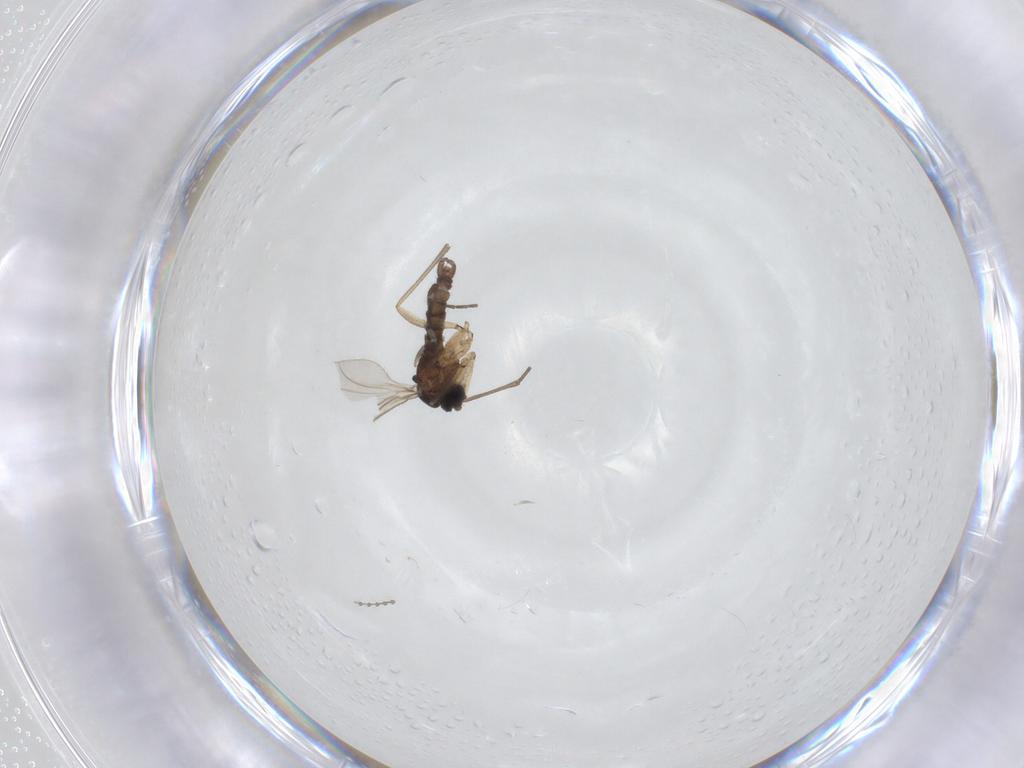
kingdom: Animalia
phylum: Arthropoda
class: Insecta
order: Diptera
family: Sciaridae
